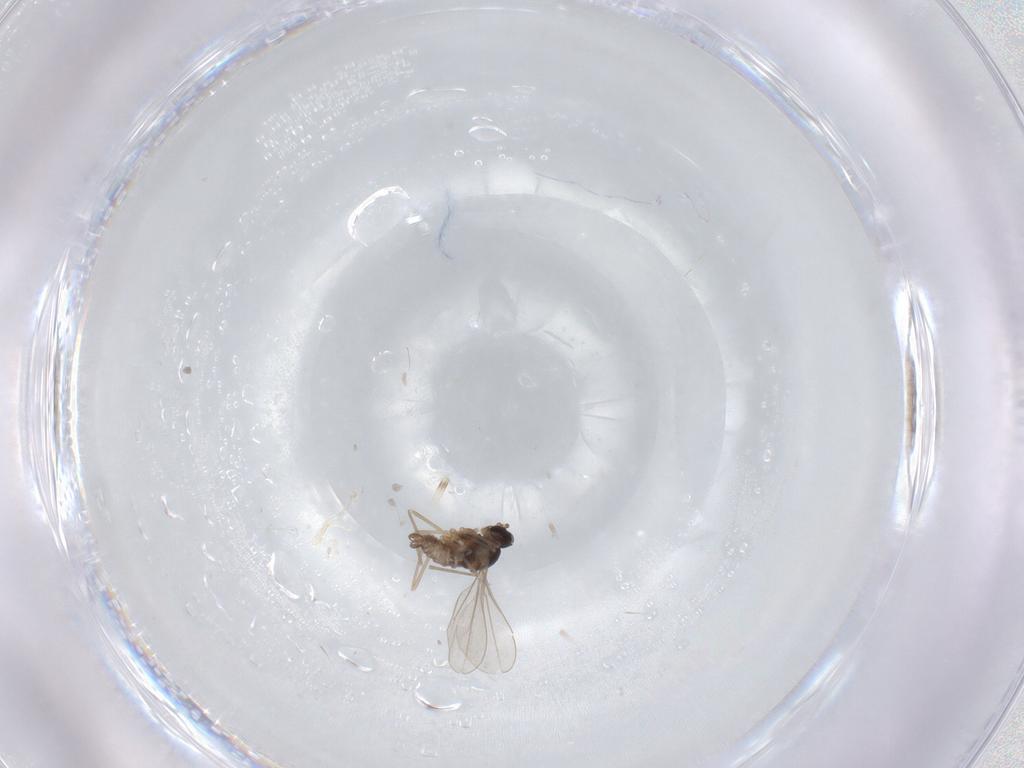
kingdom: Animalia
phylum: Arthropoda
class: Insecta
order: Diptera
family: Cecidomyiidae
